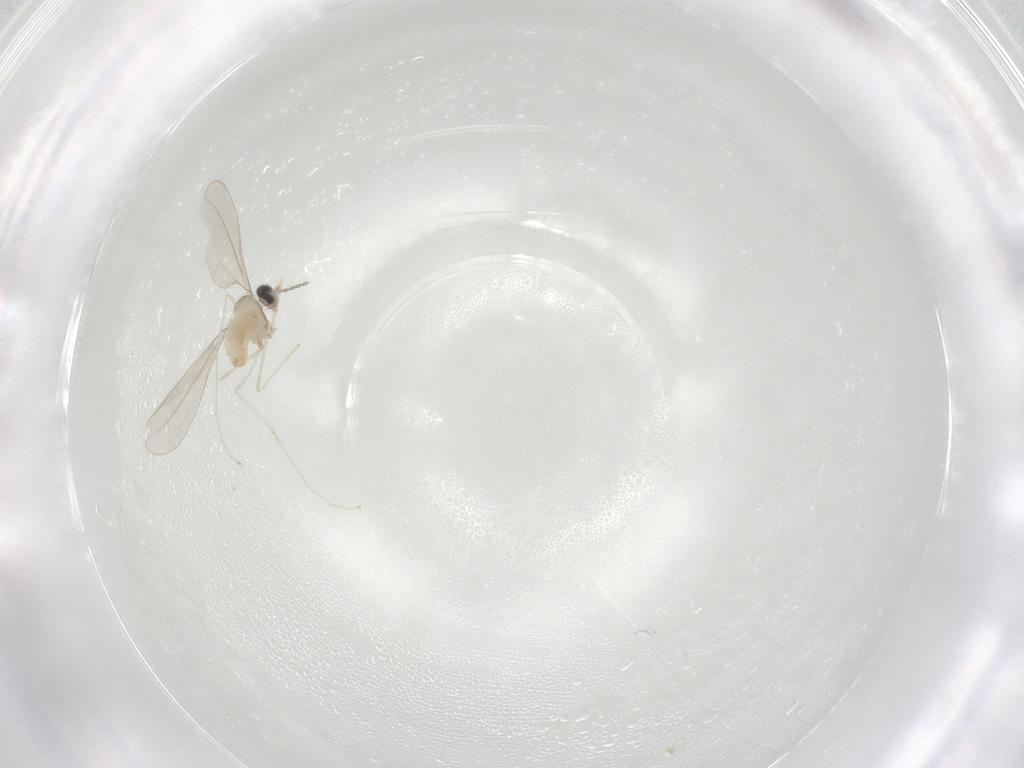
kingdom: Animalia
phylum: Arthropoda
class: Insecta
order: Diptera
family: Cecidomyiidae
